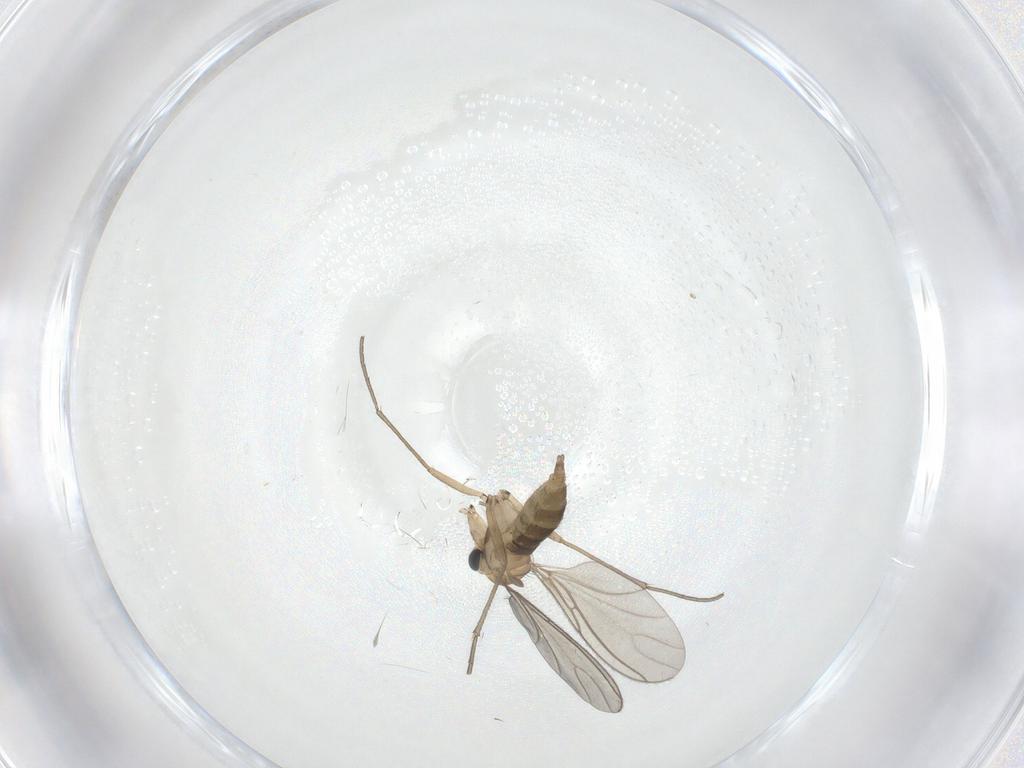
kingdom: Animalia
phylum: Arthropoda
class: Insecta
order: Diptera
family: Sciaridae
